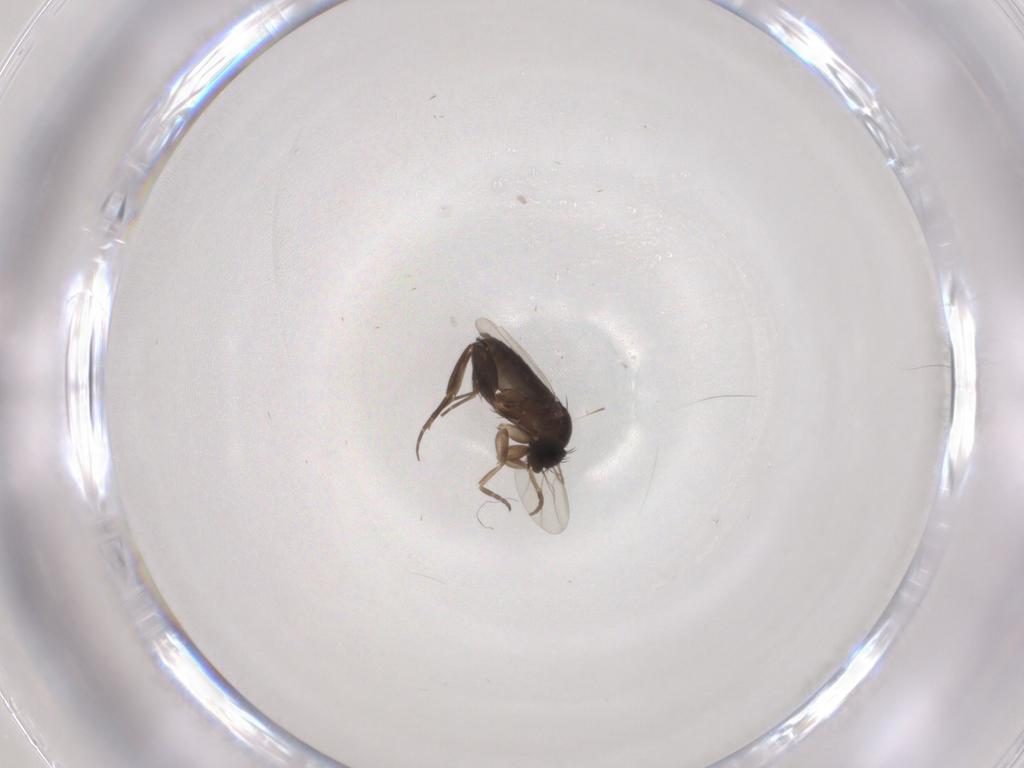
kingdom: Animalia
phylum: Arthropoda
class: Insecta
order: Diptera
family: Phoridae
